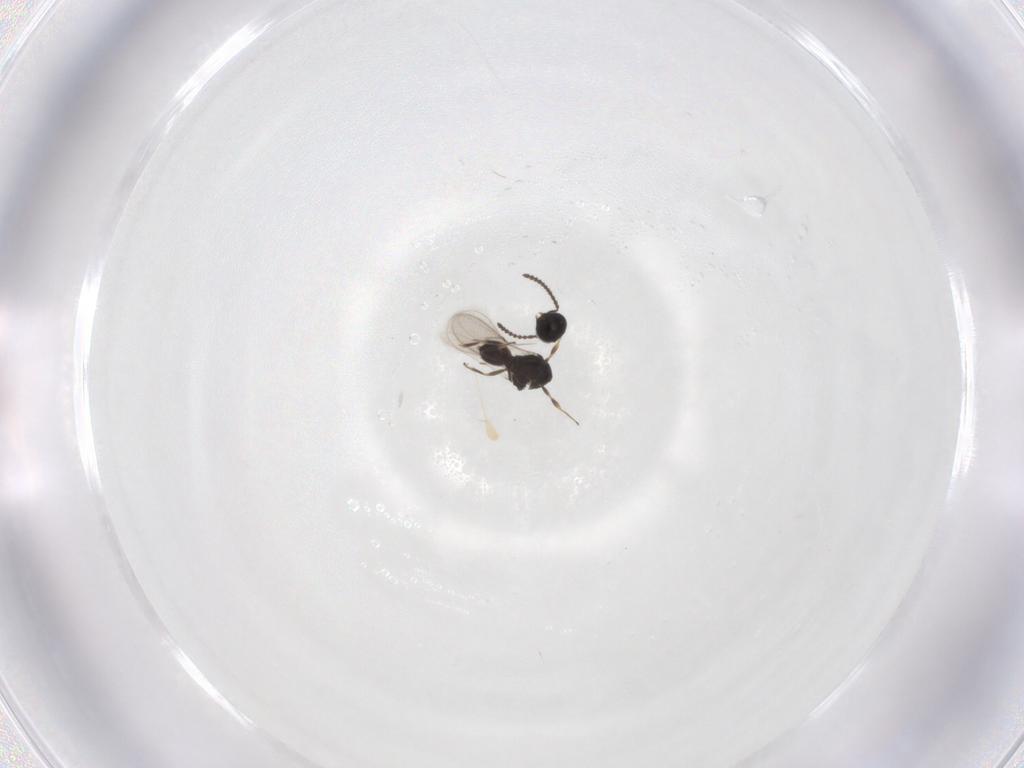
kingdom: Animalia
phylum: Arthropoda
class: Insecta
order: Hymenoptera
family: Scelionidae
